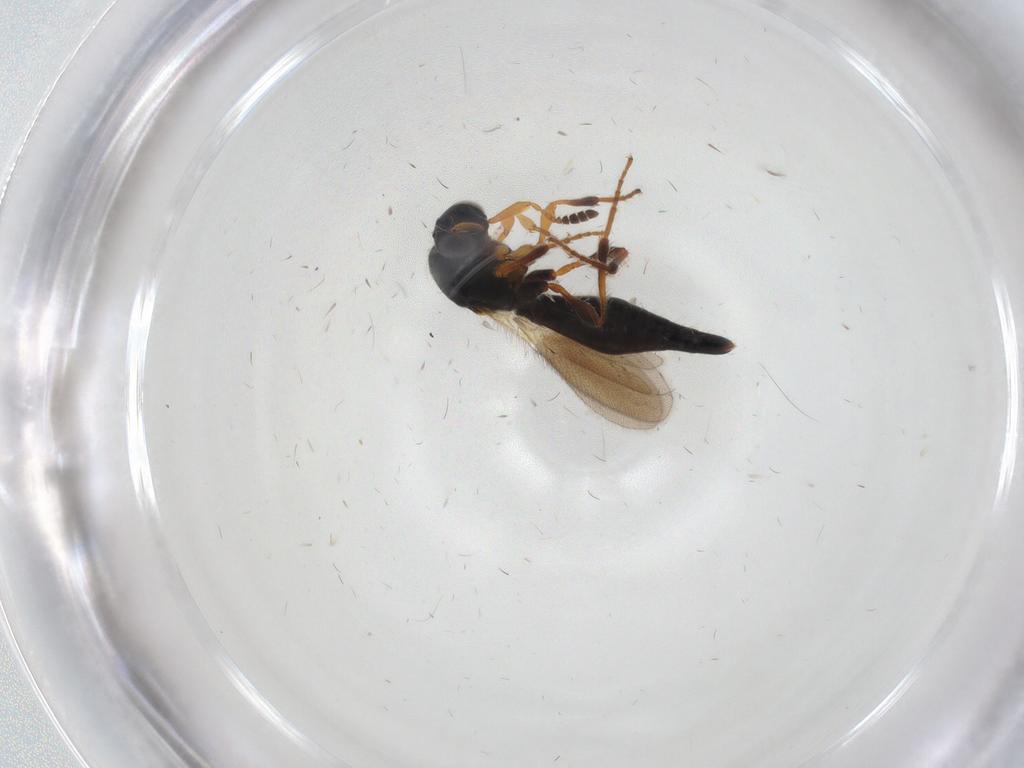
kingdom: Animalia
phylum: Arthropoda
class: Insecta
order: Hymenoptera
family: Platygastridae
